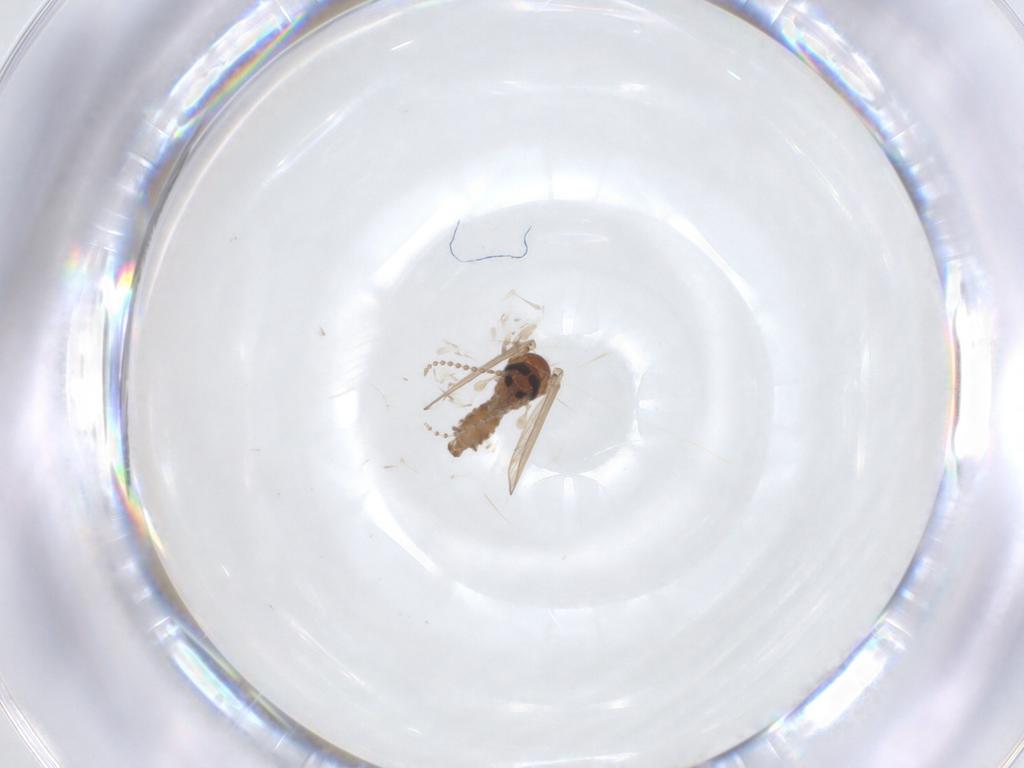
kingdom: Animalia
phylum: Arthropoda
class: Insecta
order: Diptera
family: Psychodidae
